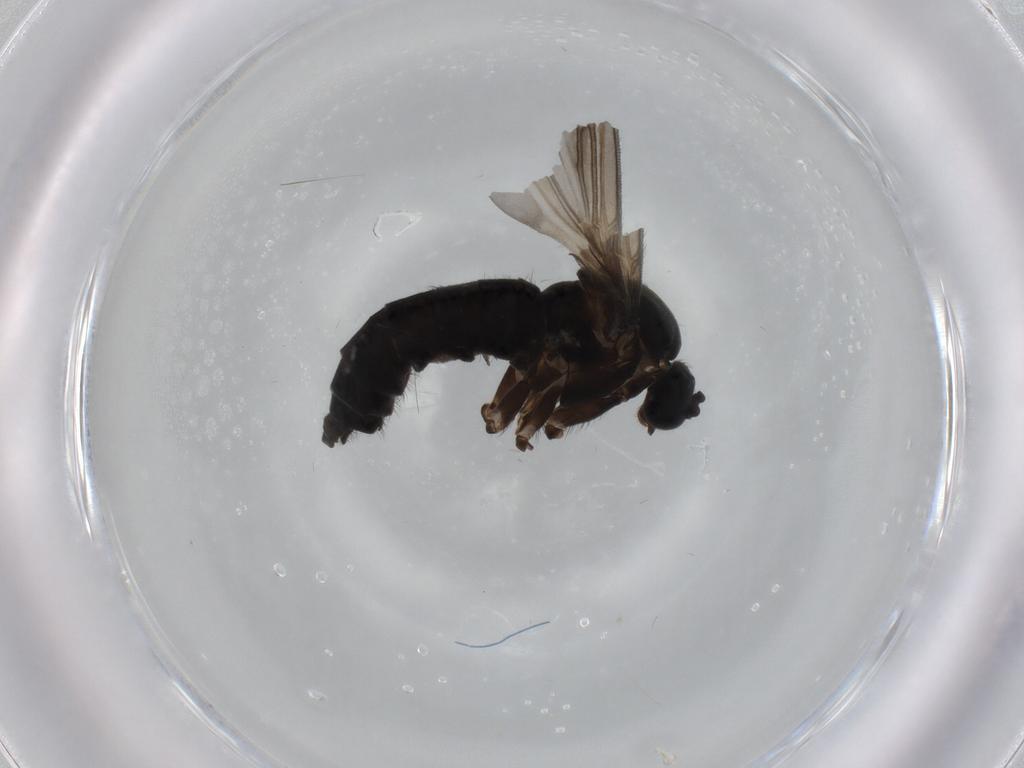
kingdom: Animalia
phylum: Arthropoda
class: Insecta
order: Diptera
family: Sciaridae
